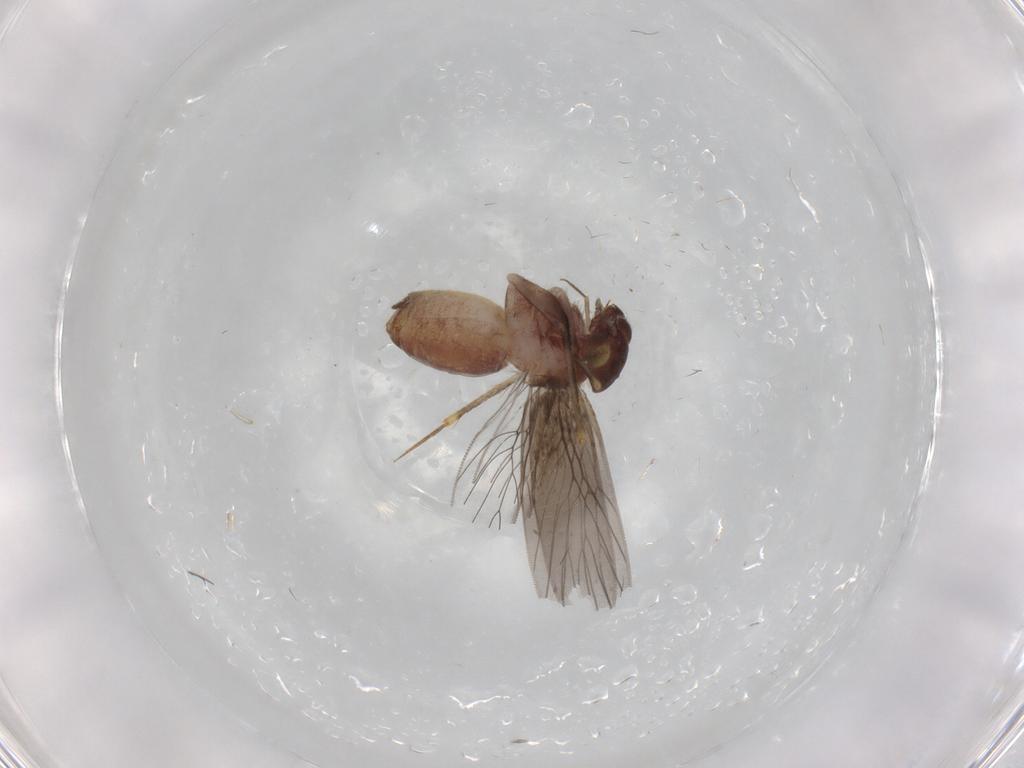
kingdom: Animalia
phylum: Arthropoda
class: Insecta
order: Psocodea
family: Lepidopsocidae
